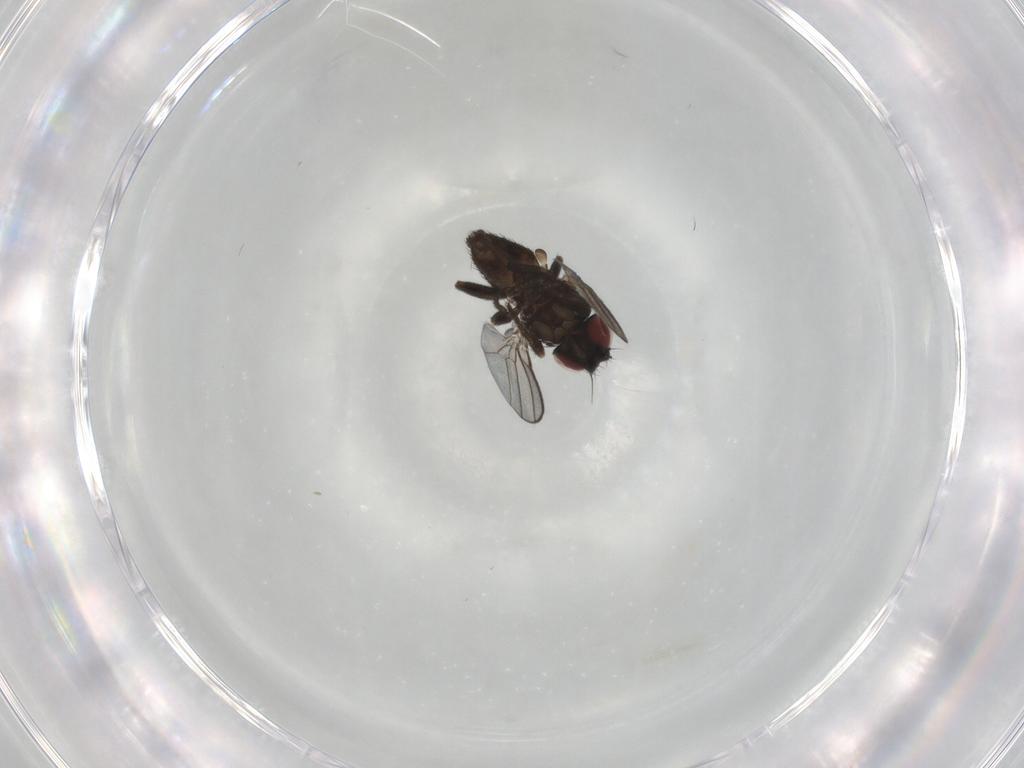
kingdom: Animalia
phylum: Arthropoda
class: Insecta
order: Diptera
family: Milichiidae
